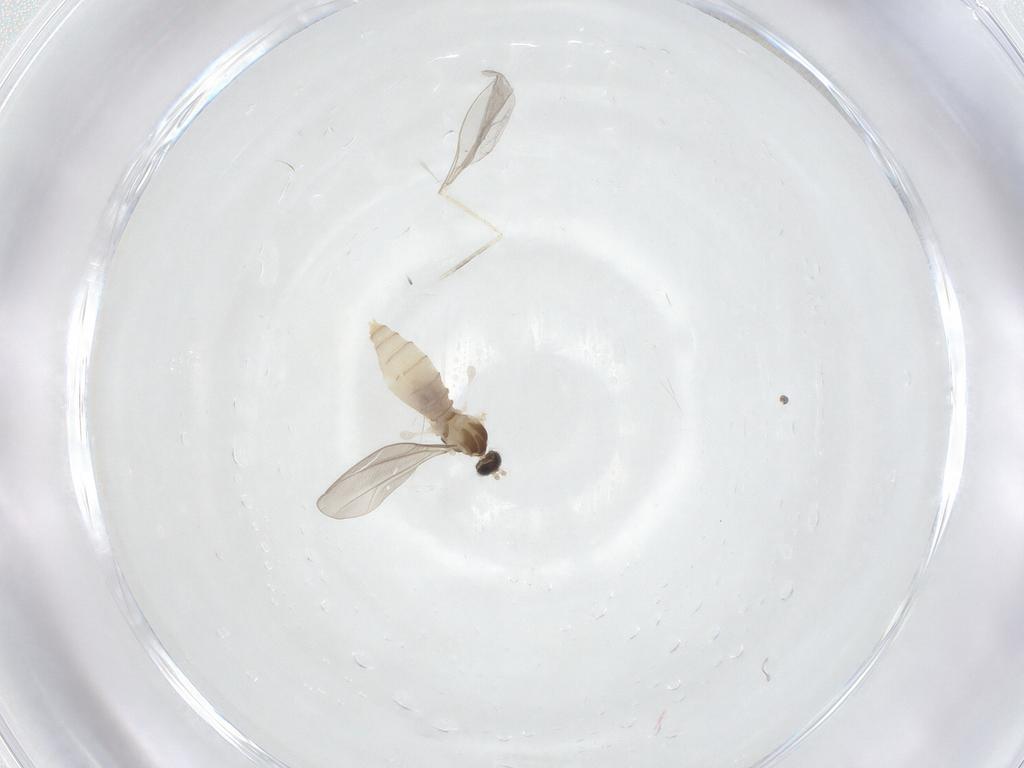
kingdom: Animalia
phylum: Arthropoda
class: Insecta
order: Diptera
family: Cecidomyiidae
